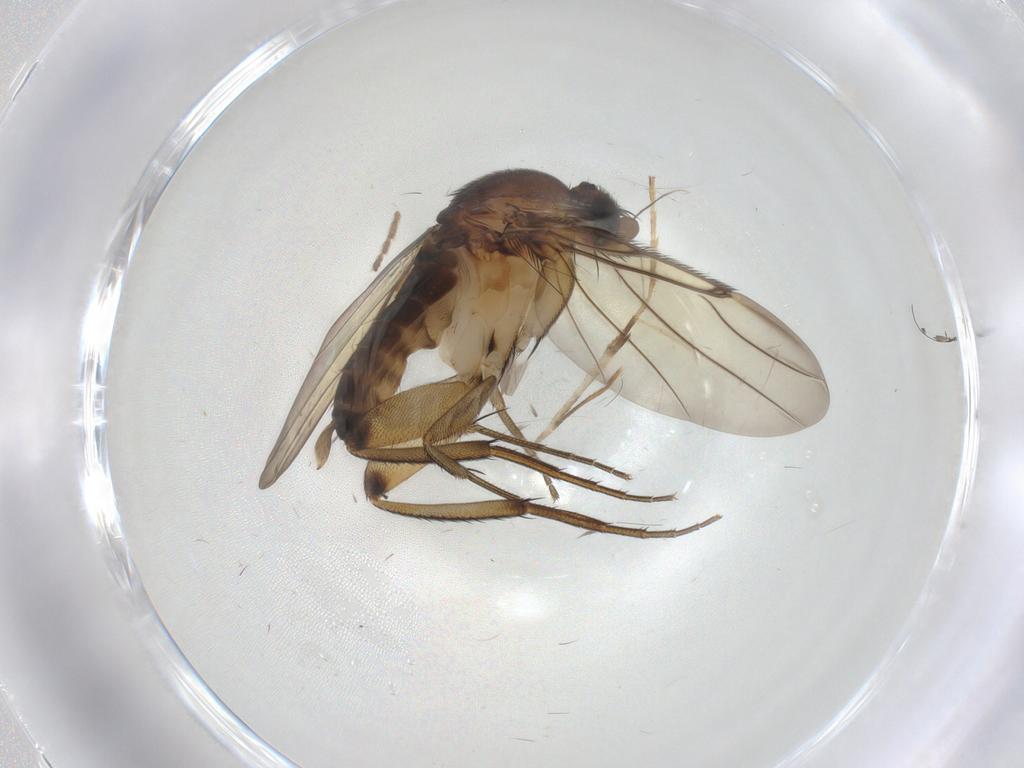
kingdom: Animalia
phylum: Arthropoda
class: Insecta
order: Diptera
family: Phoridae
